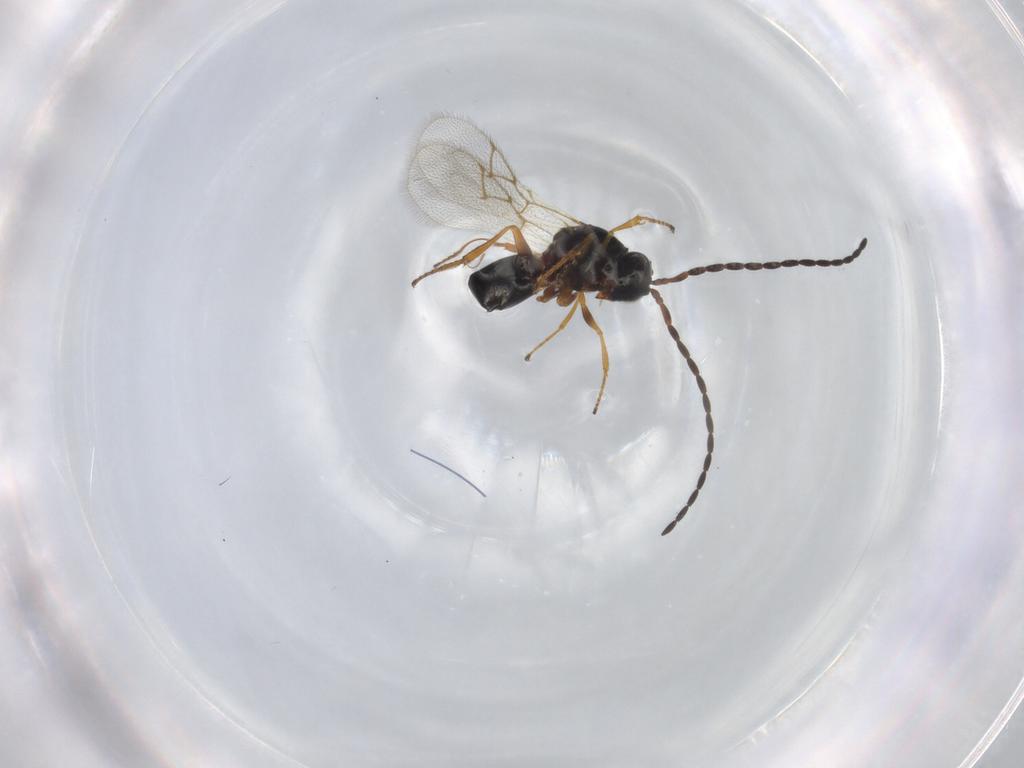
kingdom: Animalia
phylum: Arthropoda
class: Insecta
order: Hymenoptera
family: Figitidae
